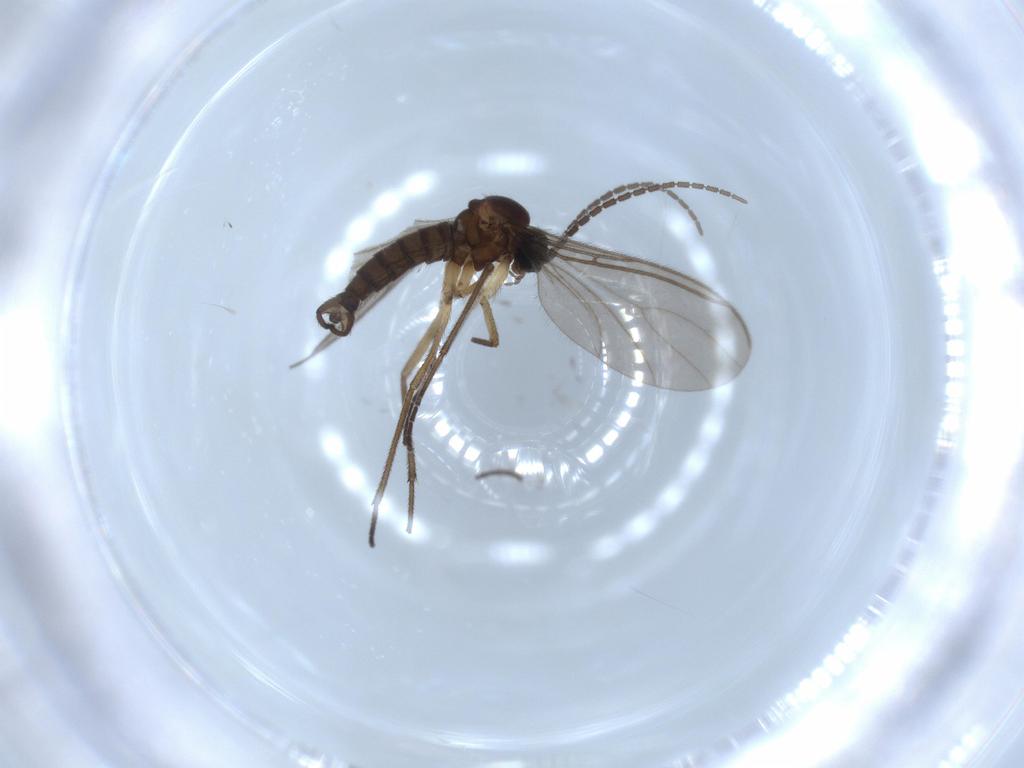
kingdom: Animalia
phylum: Arthropoda
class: Insecta
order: Diptera
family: Sciaridae
